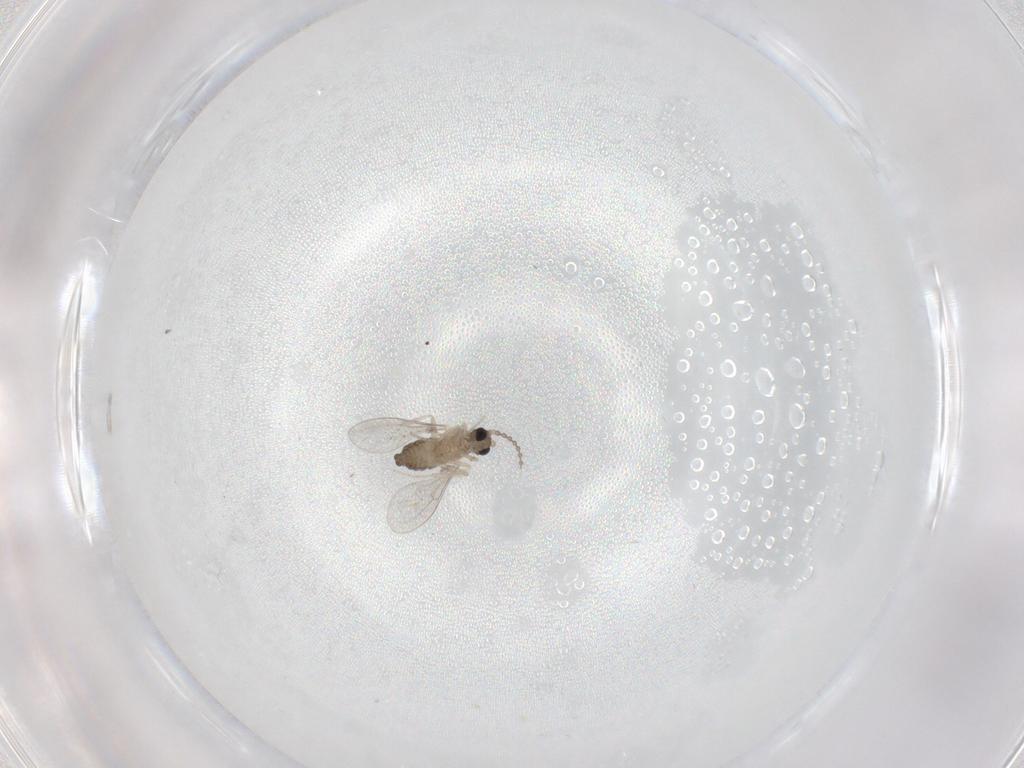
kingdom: Animalia
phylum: Arthropoda
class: Insecta
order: Diptera
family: Cecidomyiidae
